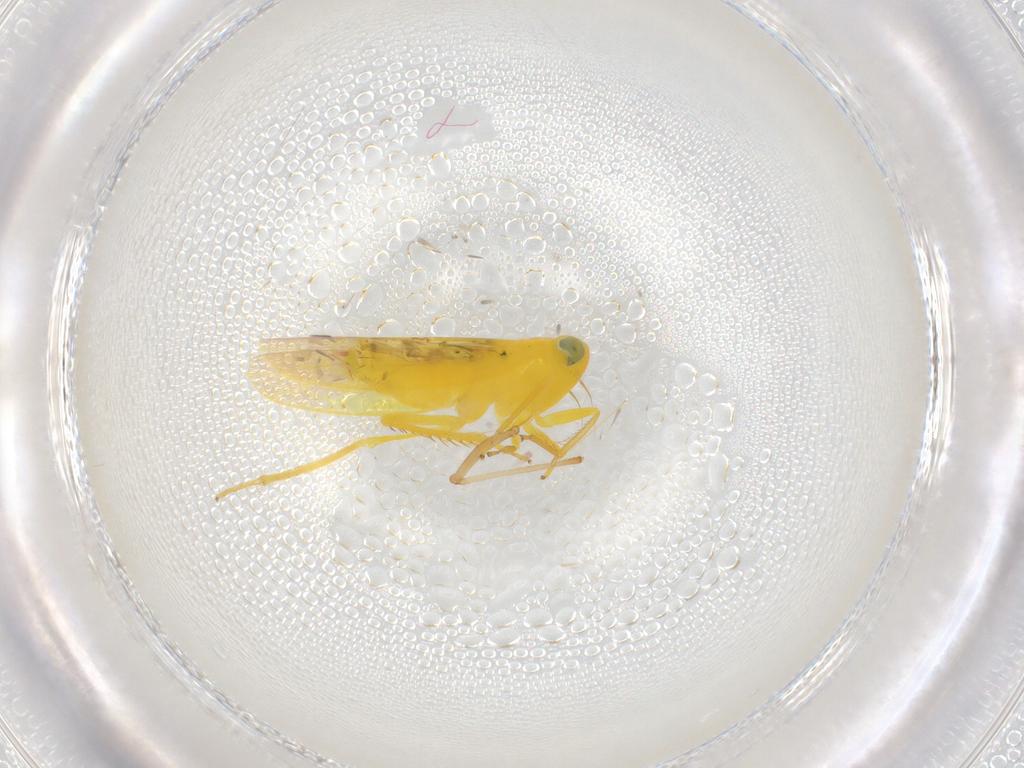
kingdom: Animalia
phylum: Arthropoda
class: Insecta
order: Hemiptera
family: Cicadellidae
